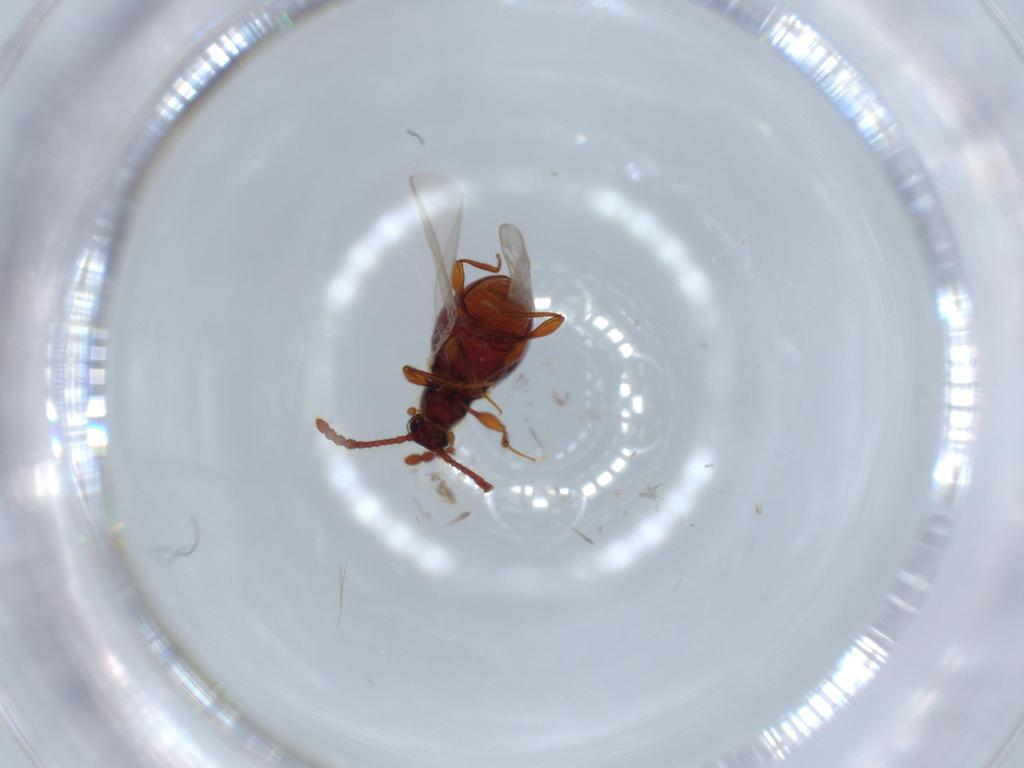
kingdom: Animalia
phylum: Arthropoda
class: Insecta
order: Coleoptera
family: Staphylinidae
